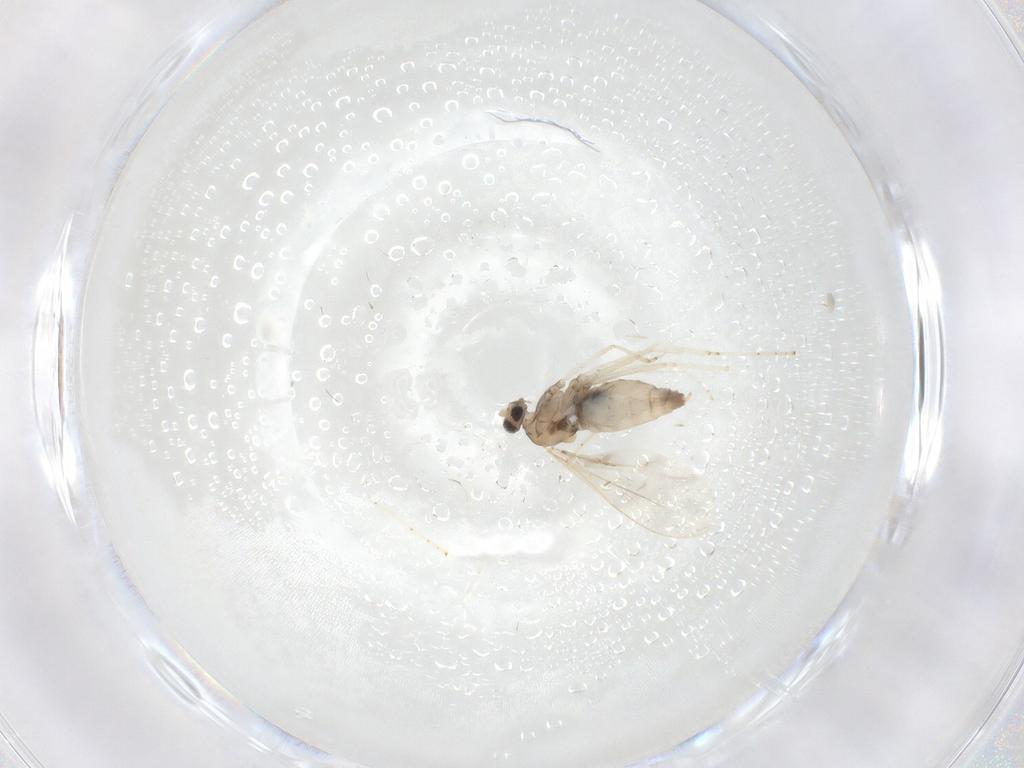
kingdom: Animalia
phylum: Arthropoda
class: Insecta
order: Diptera
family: Cecidomyiidae
